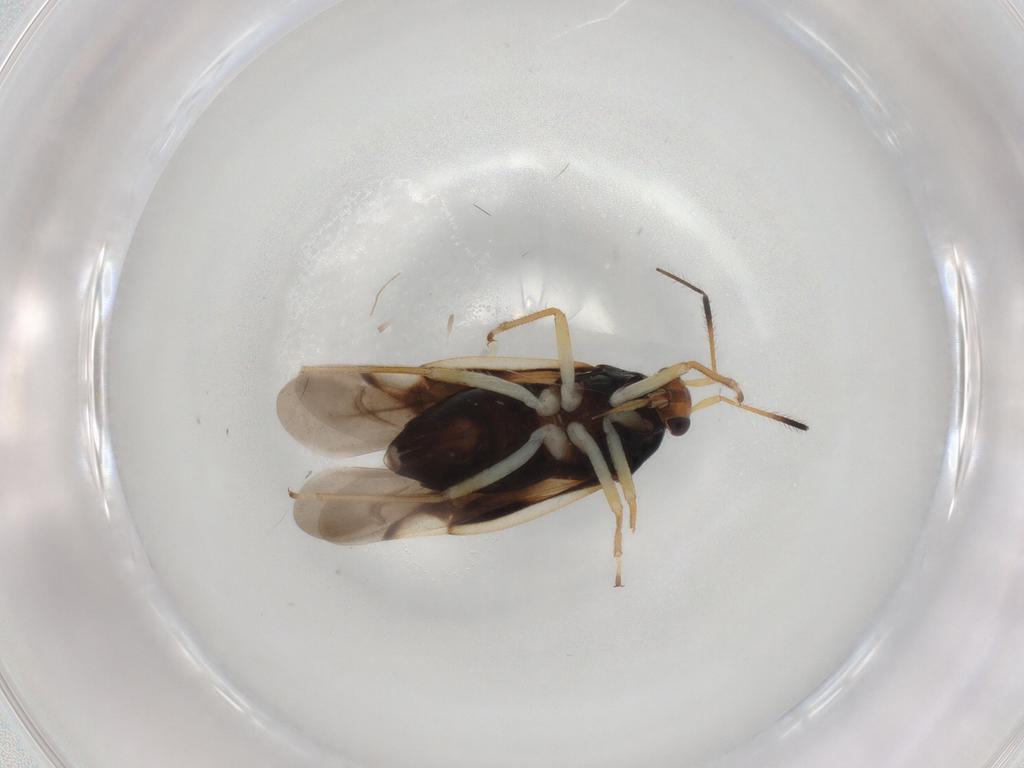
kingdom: Animalia
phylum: Arthropoda
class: Insecta
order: Hemiptera
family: Miridae
